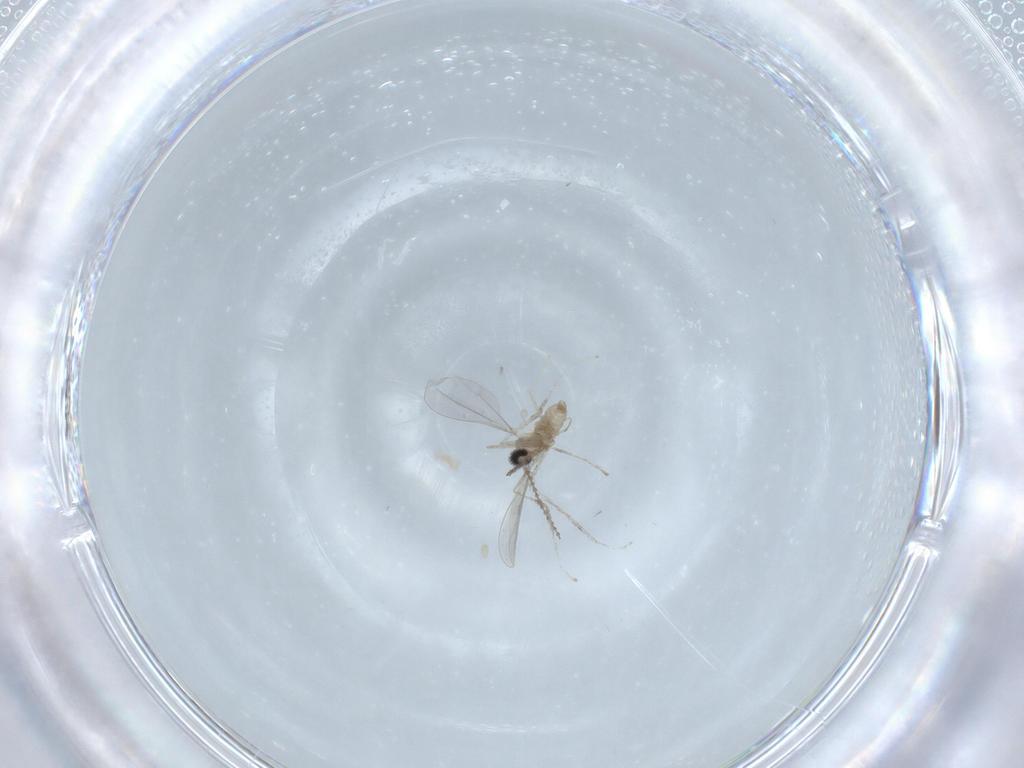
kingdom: Animalia
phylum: Arthropoda
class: Insecta
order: Diptera
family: Cecidomyiidae
